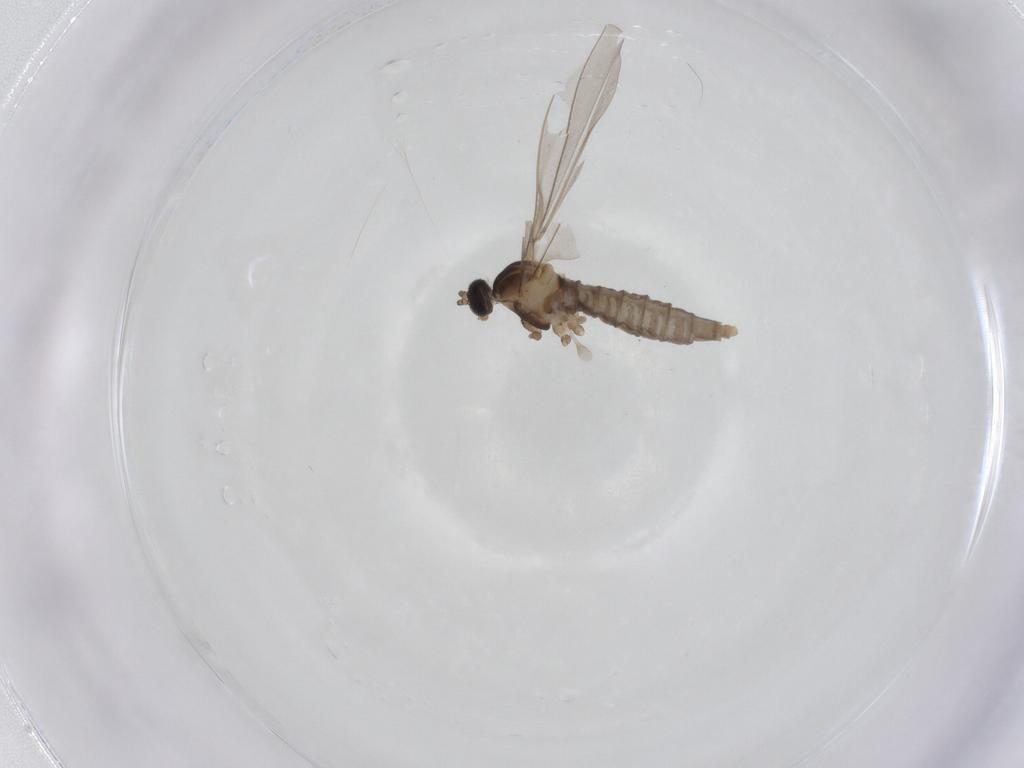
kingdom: Animalia
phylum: Arthropoda
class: Insecta
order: Diptera
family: Cecidomyiidae
